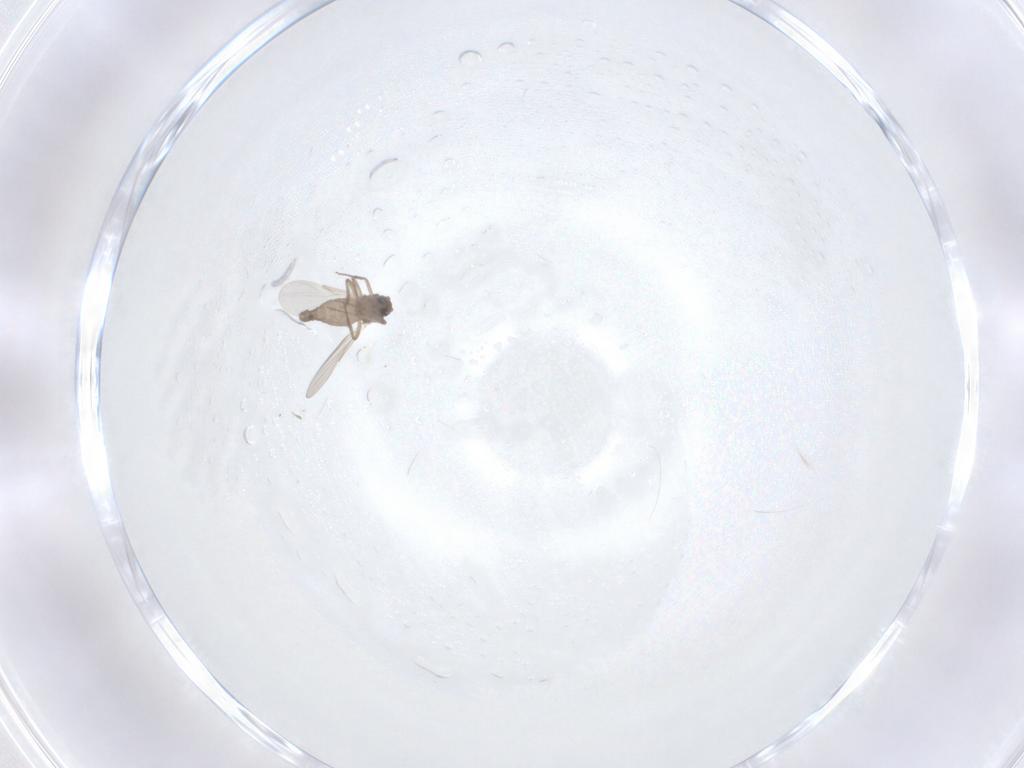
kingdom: Animalia
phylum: Arthropoda
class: Insecta
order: Diptera
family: Ceratopogonidae
